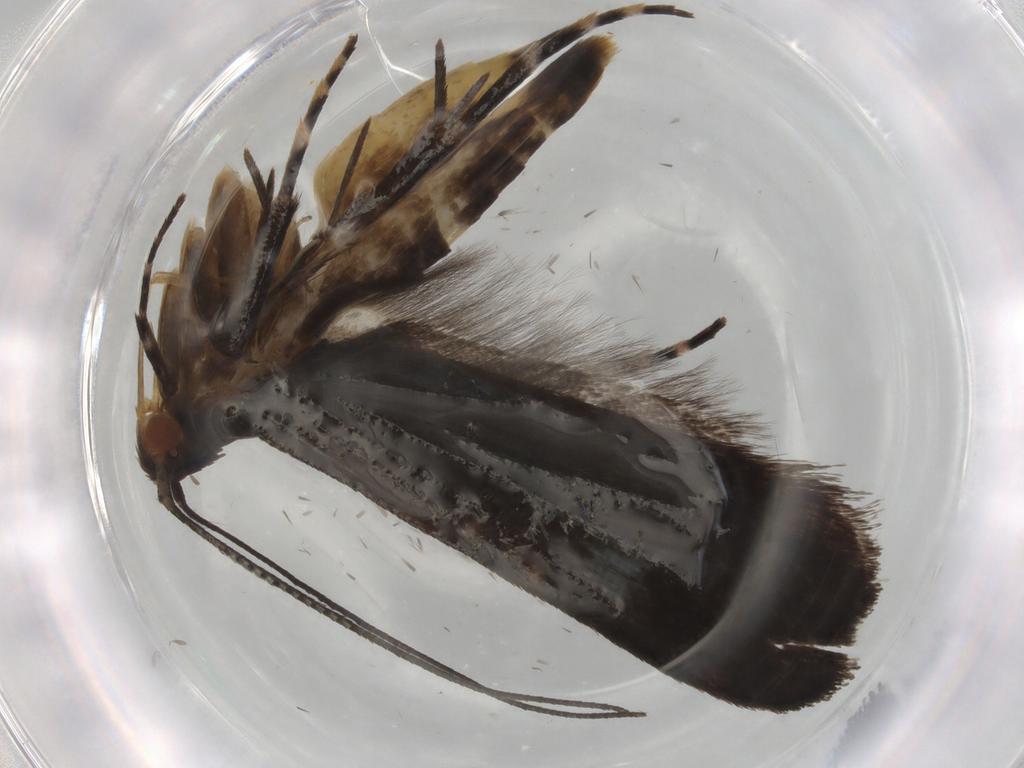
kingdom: Animalia
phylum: Arthropoda
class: Insecta
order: Lepidoptera
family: Gelechiidae
